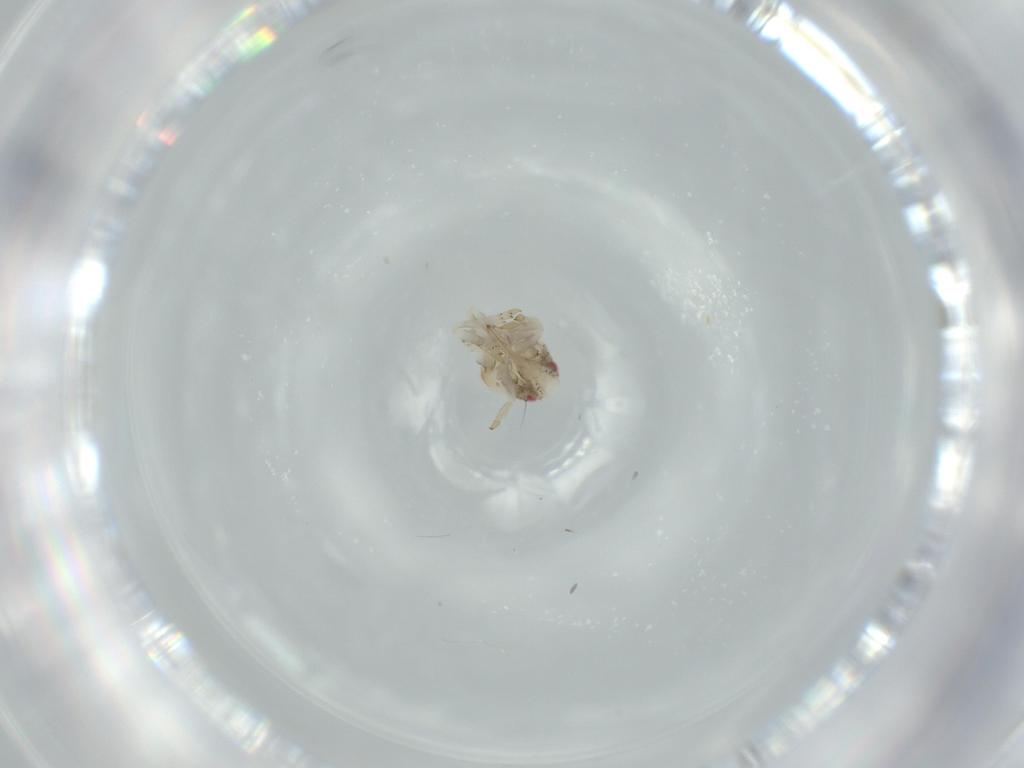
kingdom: Animalia
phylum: Arthropoda
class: Insecta
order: Hemiptera
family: Acanaloniidae
